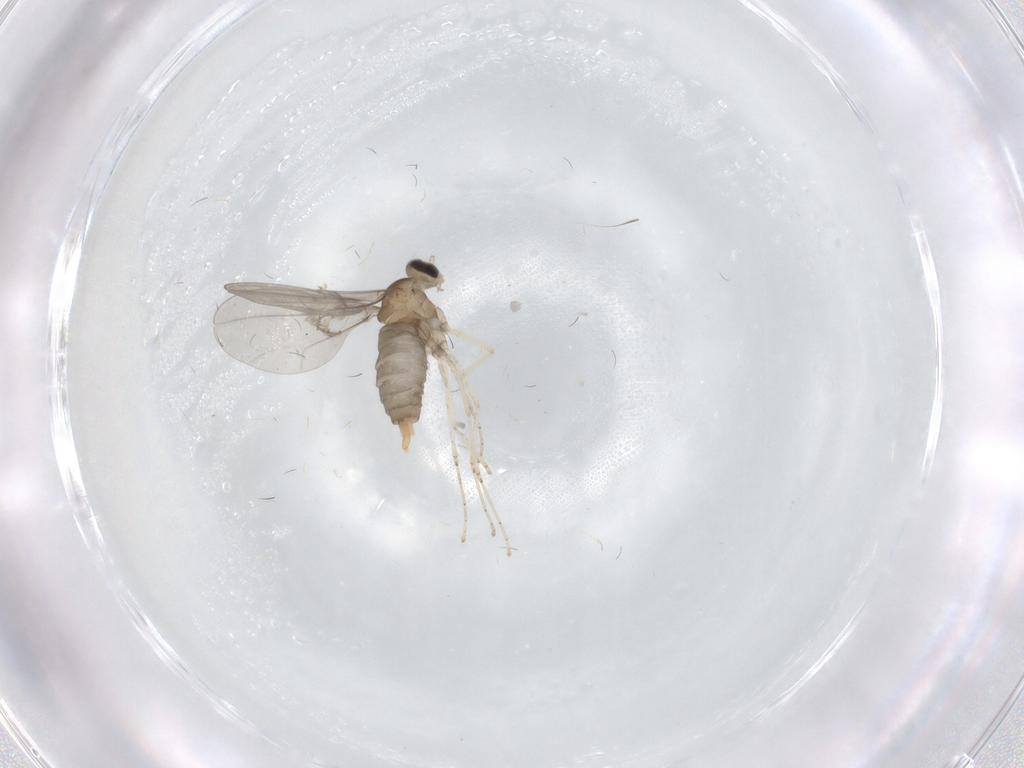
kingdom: Animalia
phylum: Arthropoda
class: Insecta
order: Diptera
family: Cecidomyiidae
